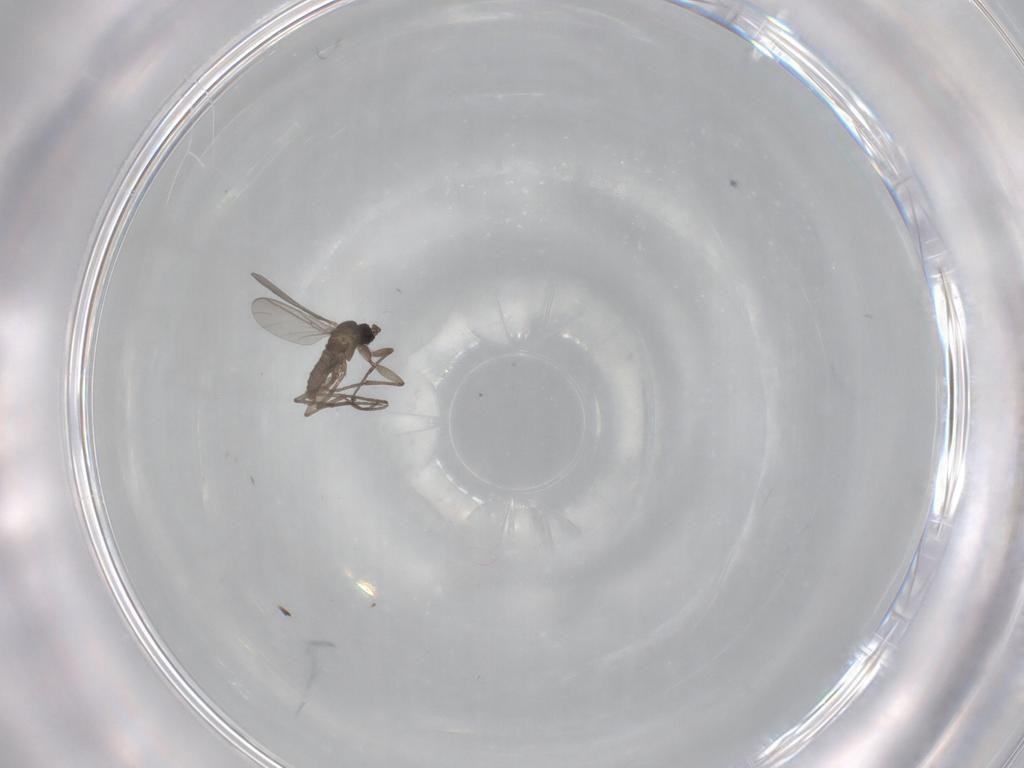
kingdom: Animalia
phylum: Arthropoda
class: Insecta
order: Diptera
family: Sciaridae
